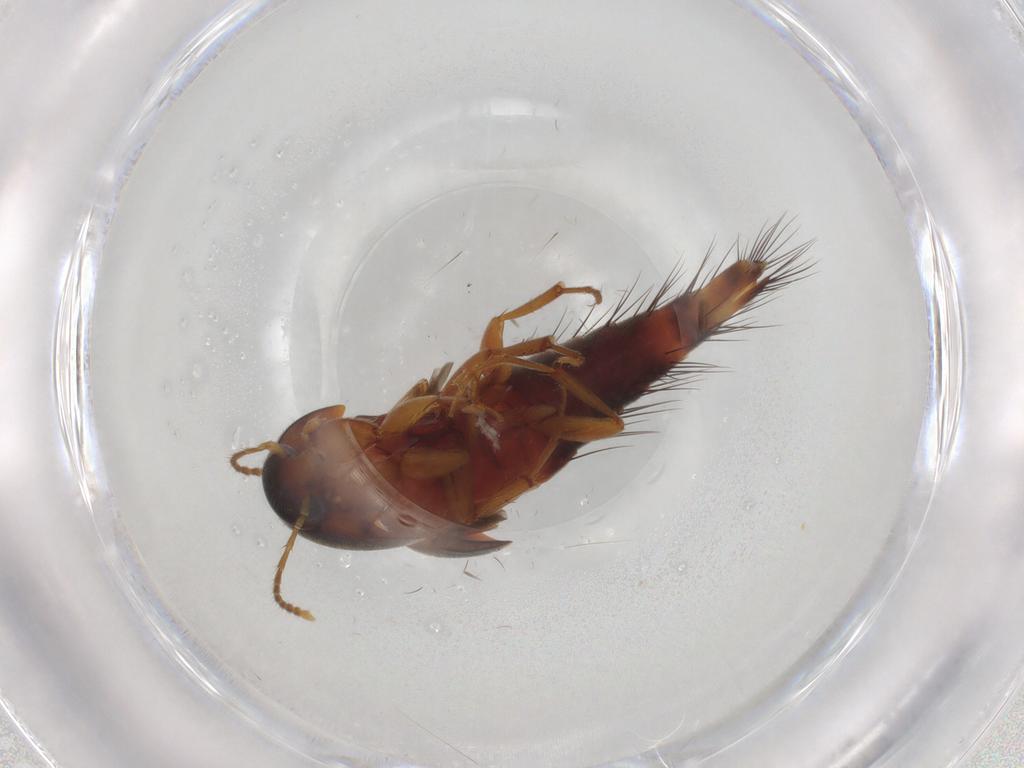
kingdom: Animalia
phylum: Arthropoda
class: Insecta
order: Coleoptera
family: Staphylinidae
